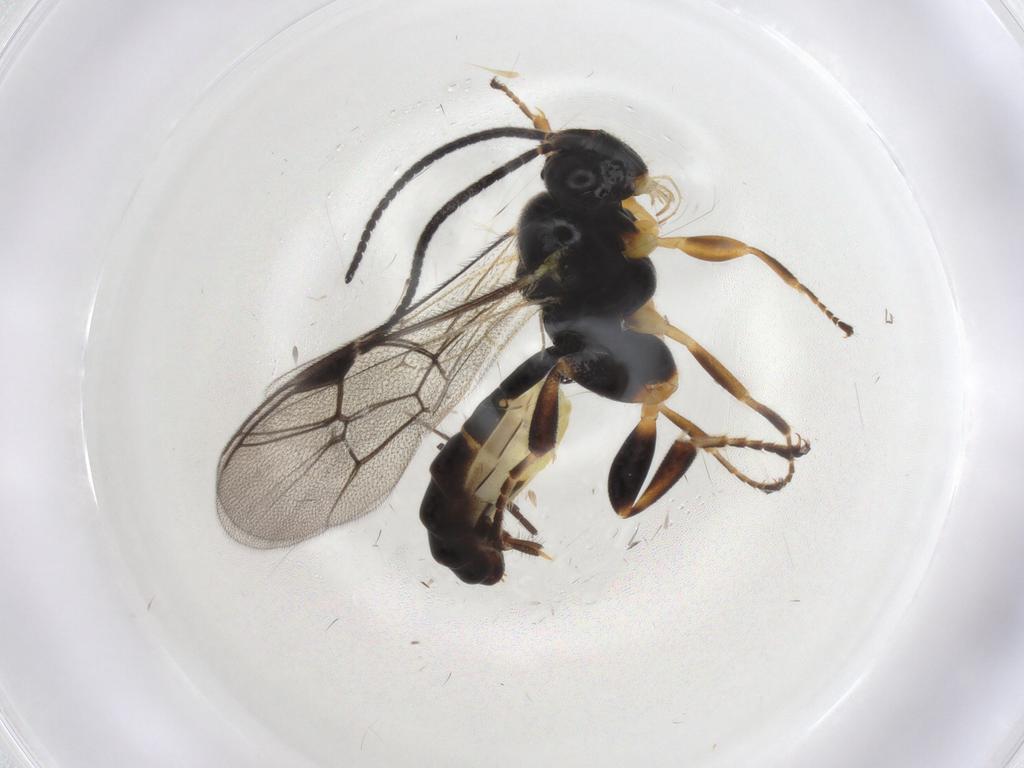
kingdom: Animalia
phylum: Arthropoda
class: Insecta
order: Hymenoptera
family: Ichneumonidae
